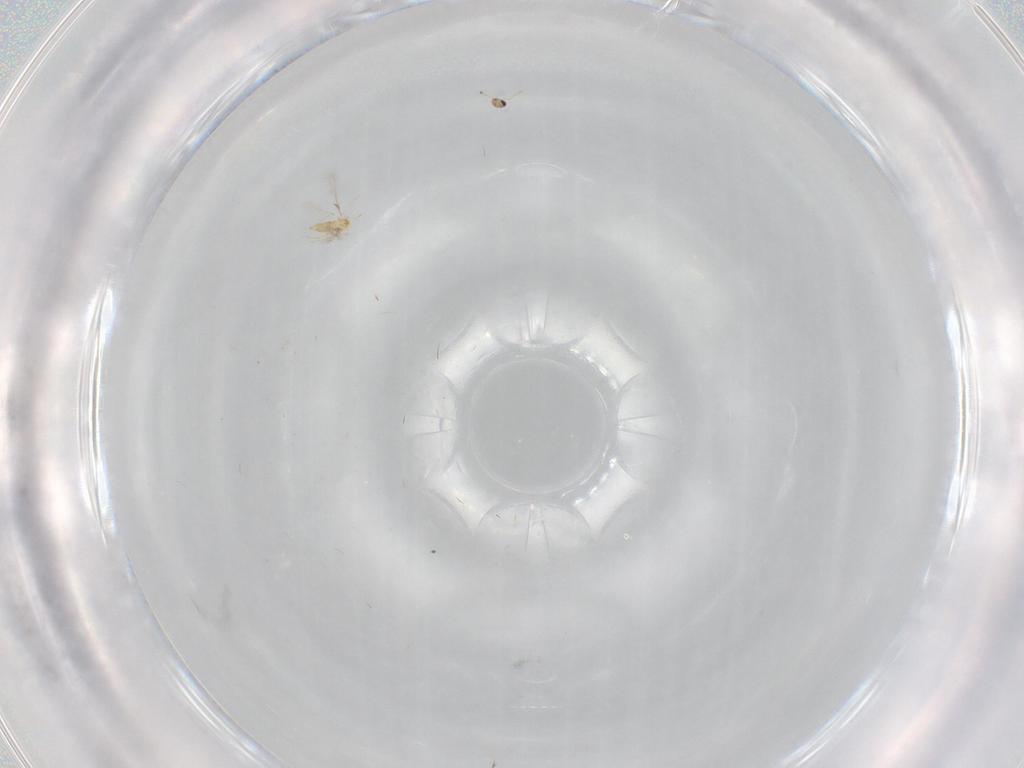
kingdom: Animalia
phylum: Arthropoda
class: Insecta
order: Hymenoptera
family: Mymaridae
